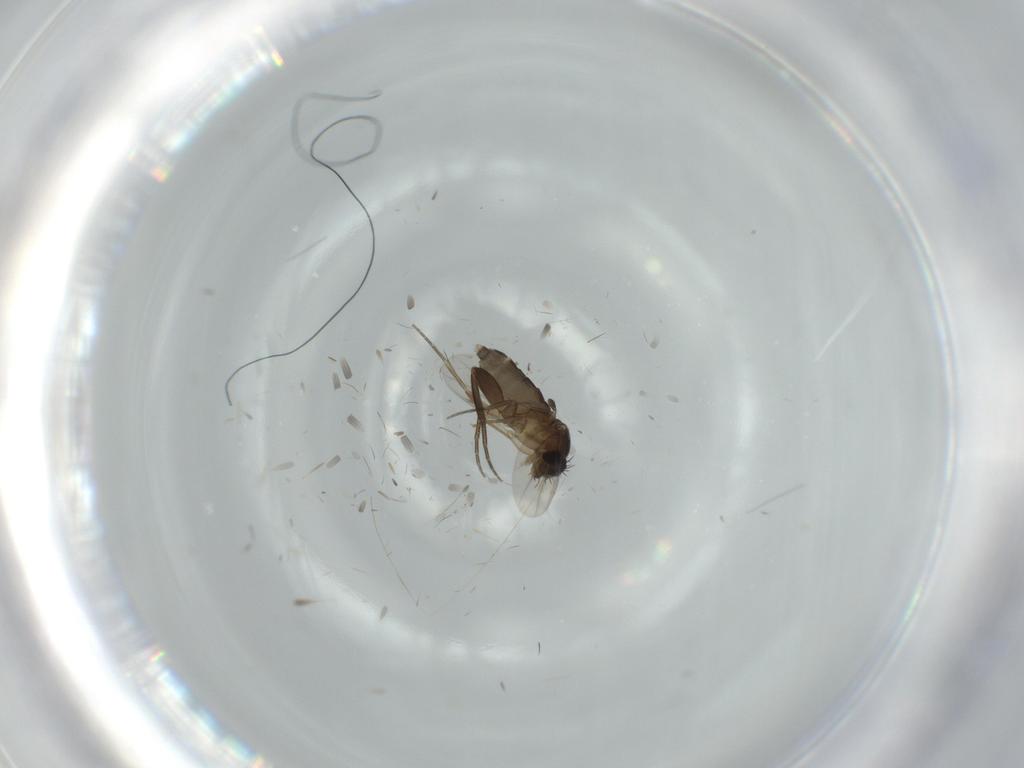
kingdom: Animalia
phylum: Arthropoda
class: Insecta
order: Diptera
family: Phoridae
